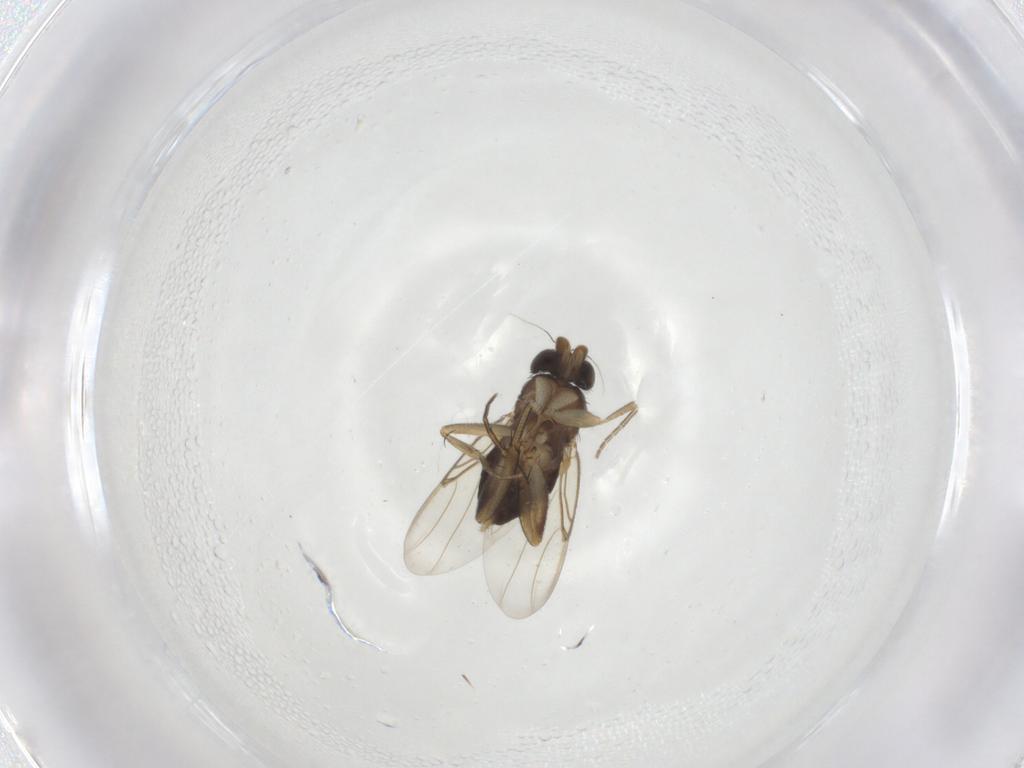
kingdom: Animalia
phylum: Arthropoda
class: Insecta
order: Diptera
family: Phoridae
